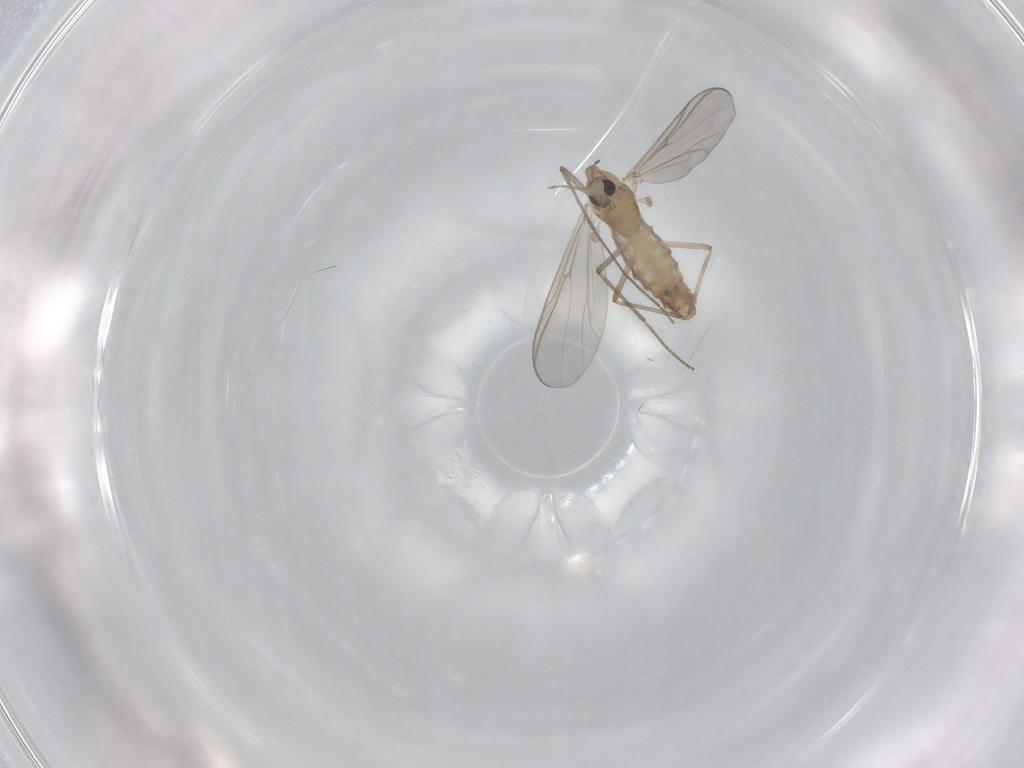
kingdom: Animalia
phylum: Arthropoda
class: Insecta
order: Diptera
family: Chironomidae
